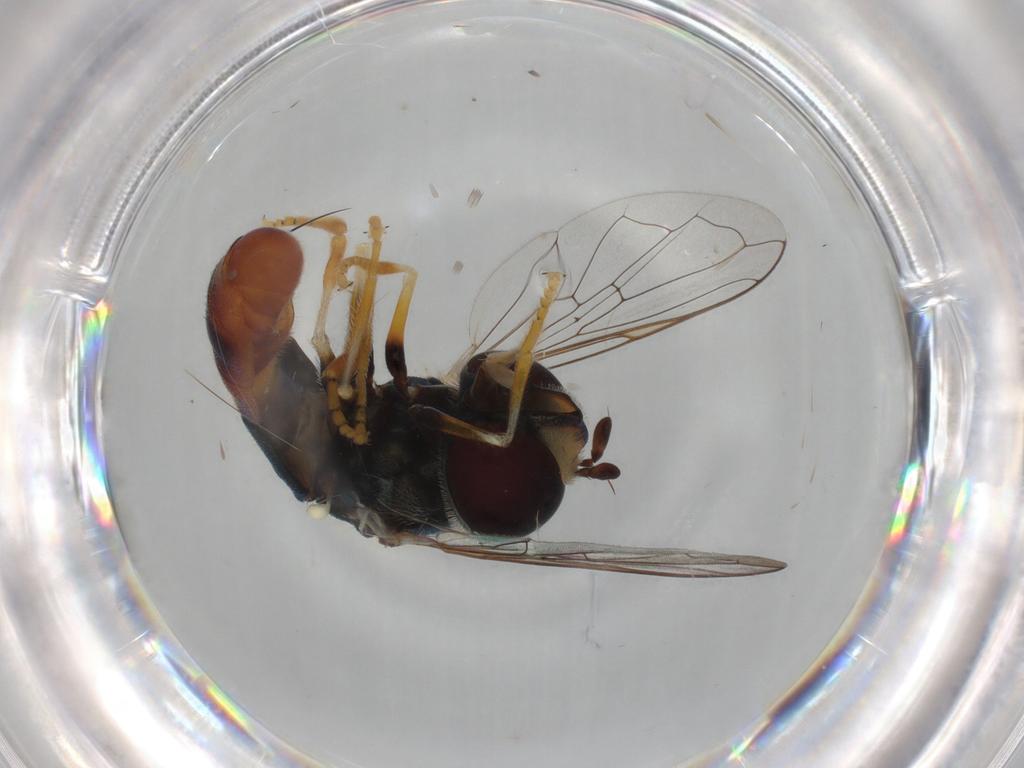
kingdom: Animalia
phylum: Arthropoda
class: Insecta
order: Diptera
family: Syrphidae
